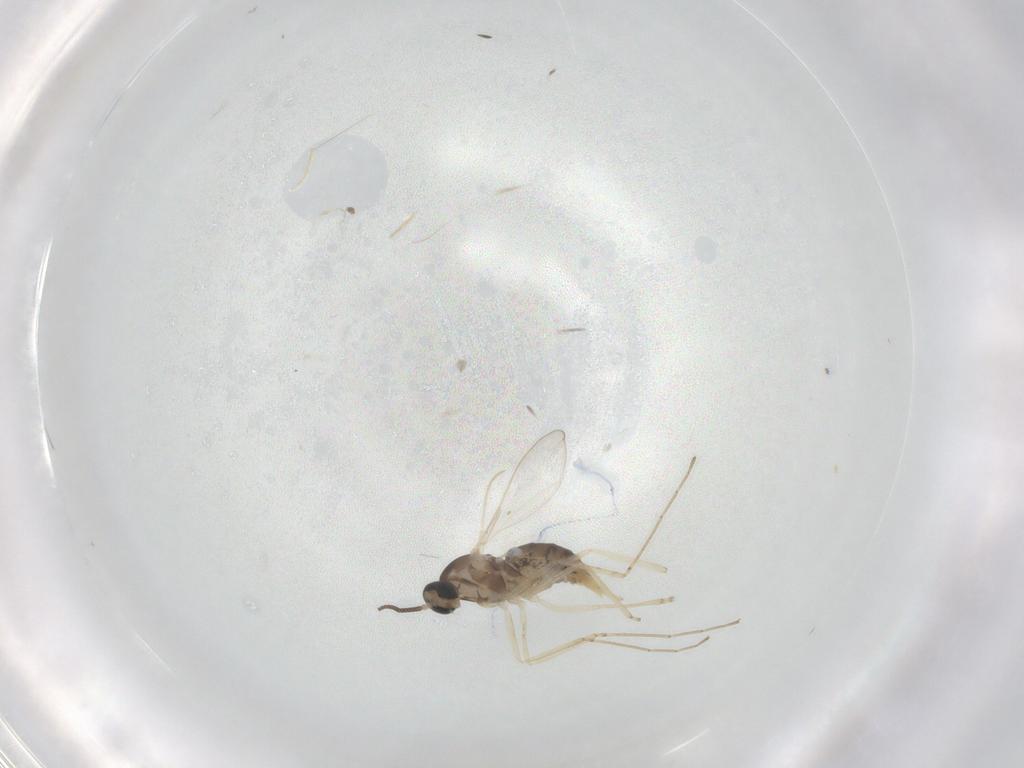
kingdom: Animalia
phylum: Arthropoda
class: Insecta
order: Diptera
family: Cecidomyiidae
